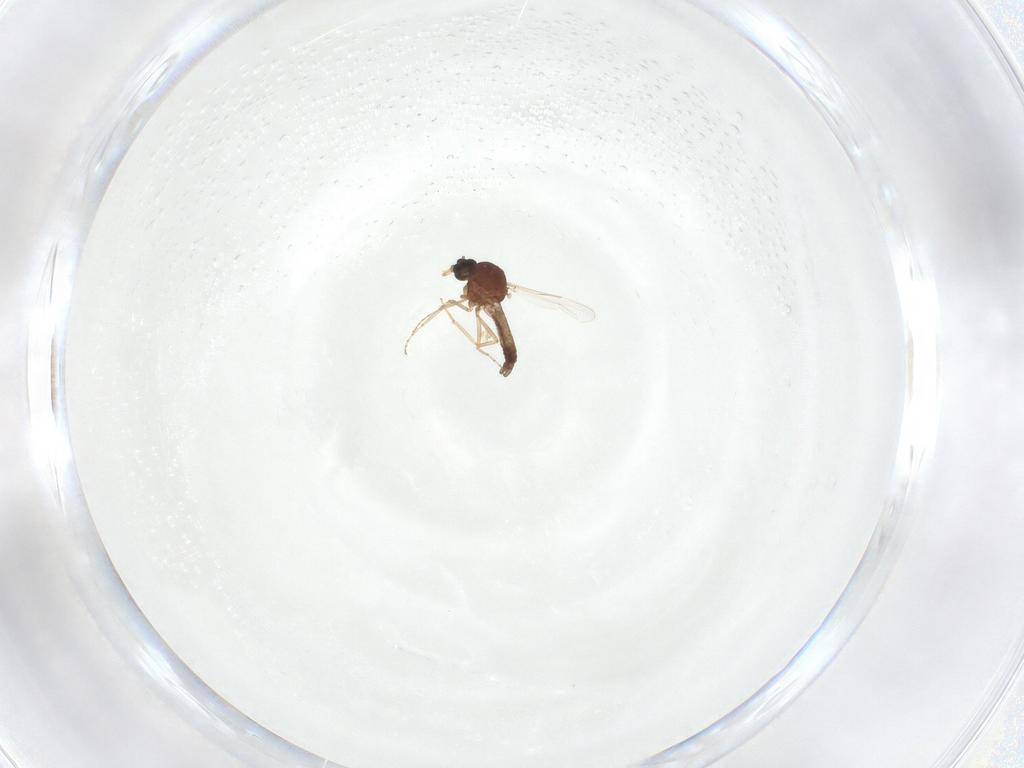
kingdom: Animalia
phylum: Arthropoda
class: Insecta
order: Diptera
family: Ceratopogonidae
